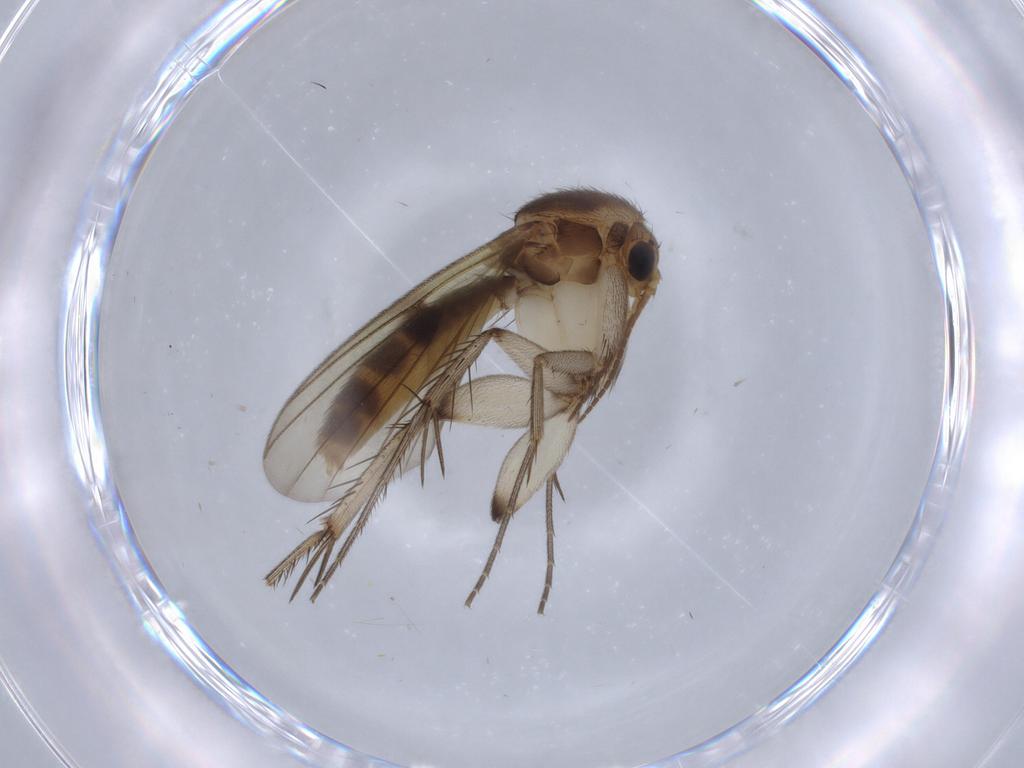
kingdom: Animalia
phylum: Arthropoda
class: Insecta
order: Diptera
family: Mycetophilidae
